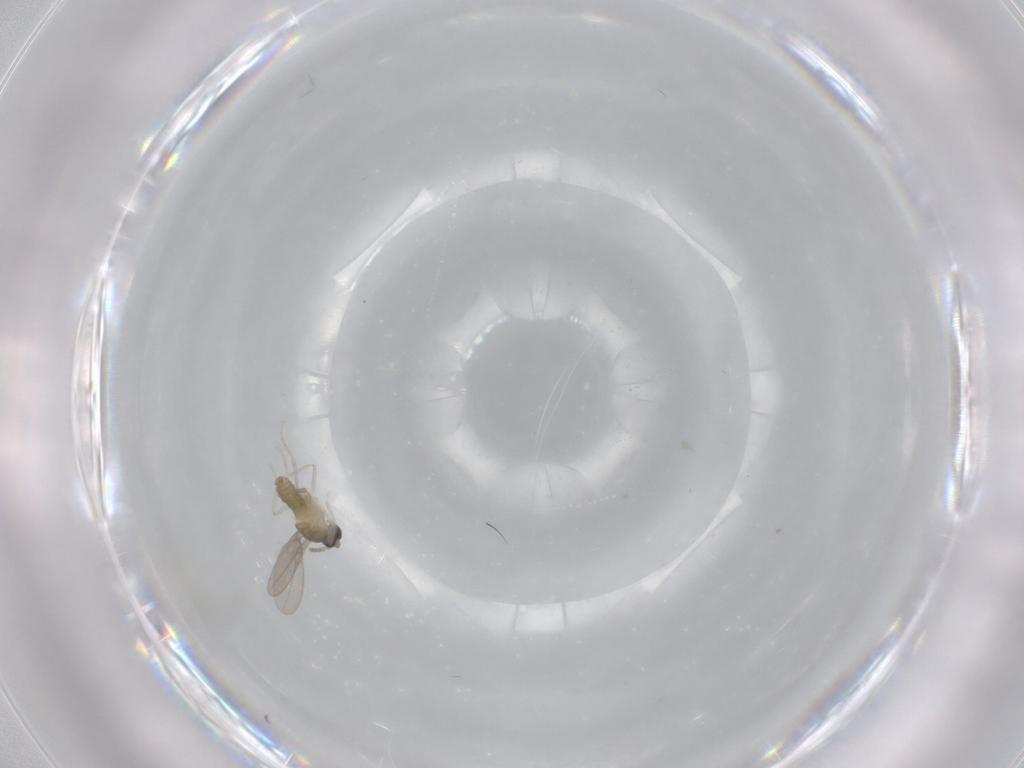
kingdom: Animalia
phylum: Arthropoda
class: Insecta
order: Diptera
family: Cecidomyiidae
